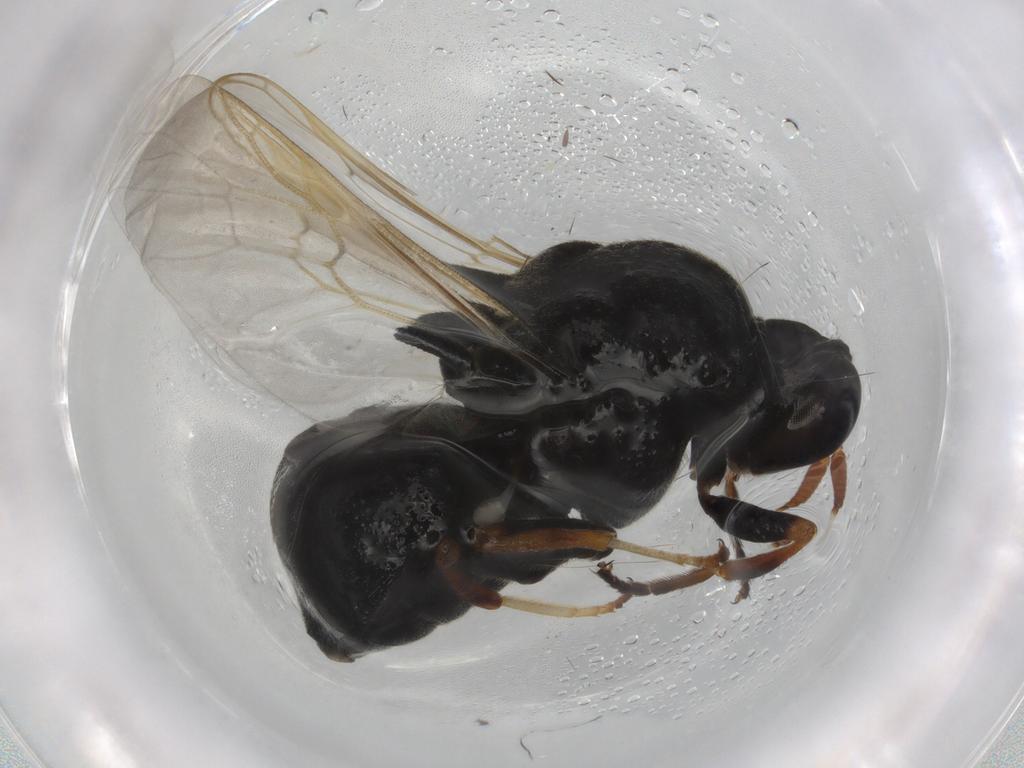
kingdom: Animalia
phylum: Arthropoda
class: Insecta
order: Diptera
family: Stratiomyidae
